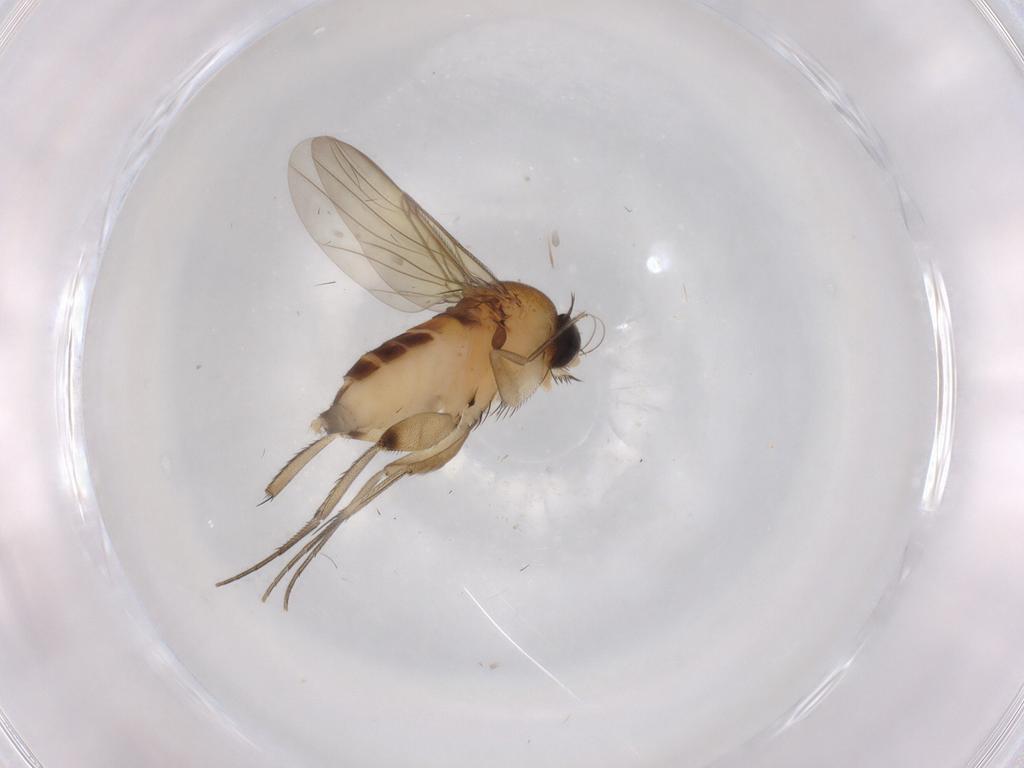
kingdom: Animalia
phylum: Arthropoda
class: Insecta
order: Diptera
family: Phoridae
